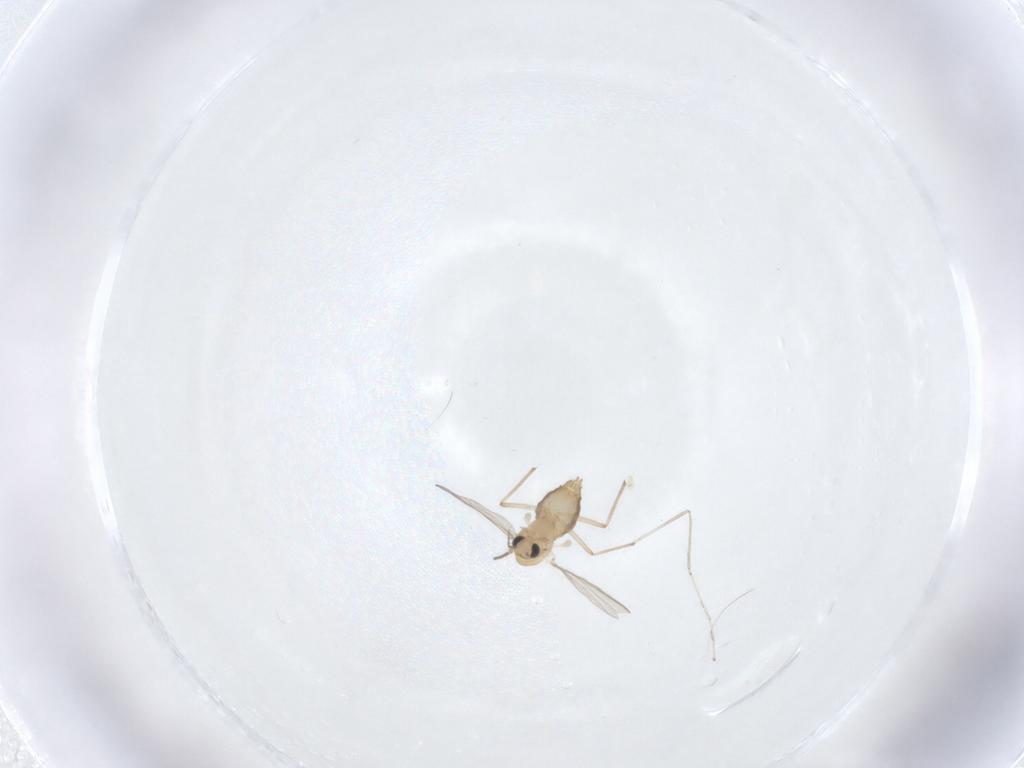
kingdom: Animalia
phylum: Arthropoda
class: Insecta
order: Diptera
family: Chironomidae
